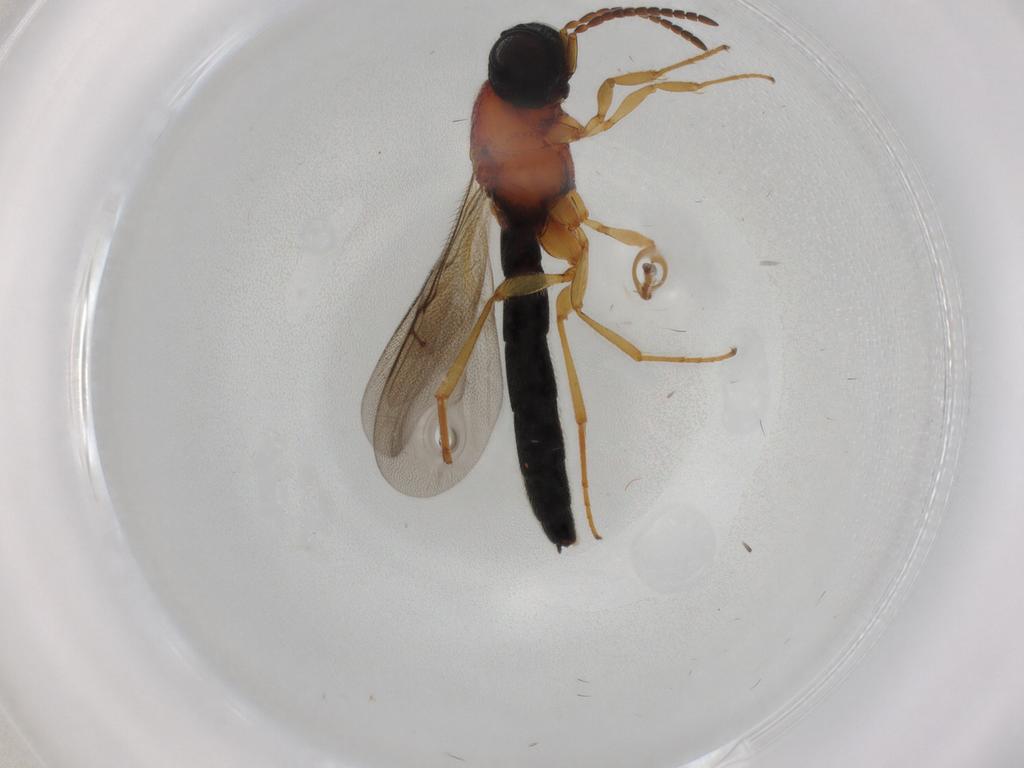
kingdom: Animalia
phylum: Arthropoda
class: Insecta
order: Hymenoptera
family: Scelionidae
